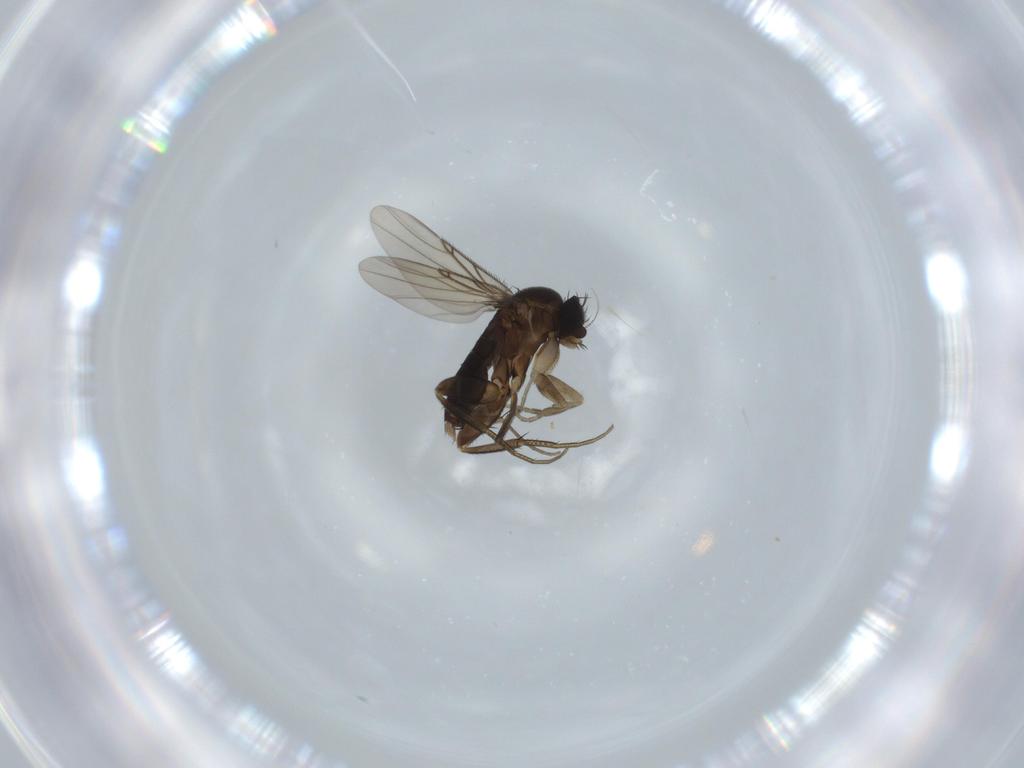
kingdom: Animalia
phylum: Arthropoda
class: Insecta
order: Diptera
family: Phoridae
